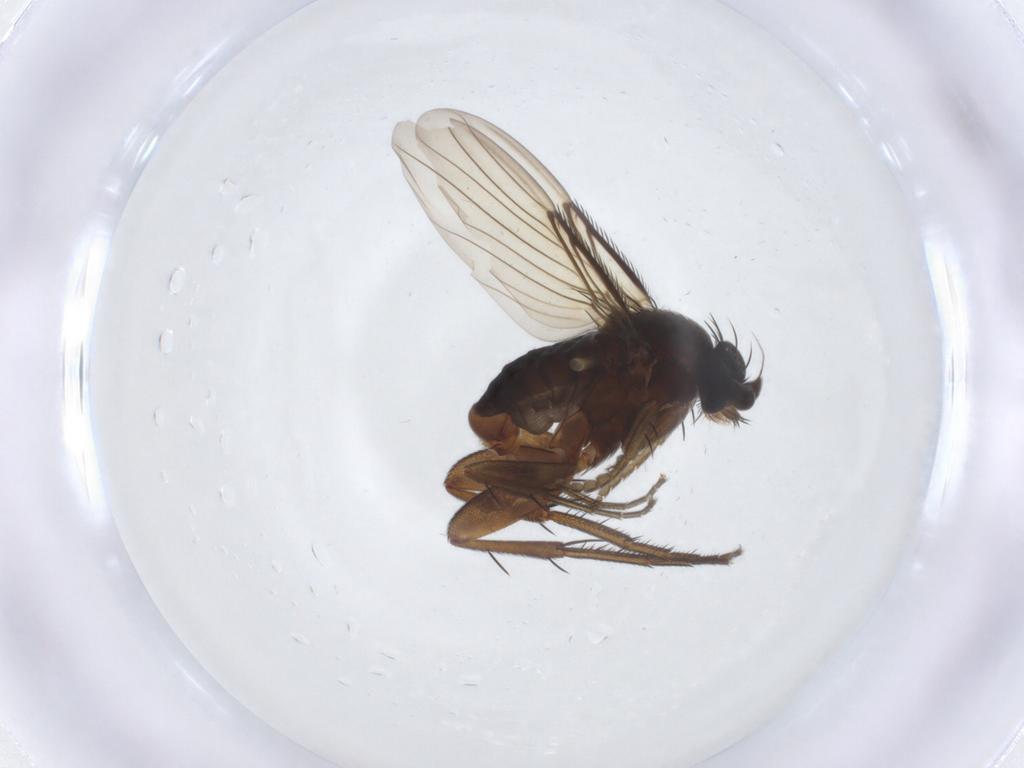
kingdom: Animalia
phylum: Arthropoda
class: Insecta
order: Diptera
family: Phoridae
